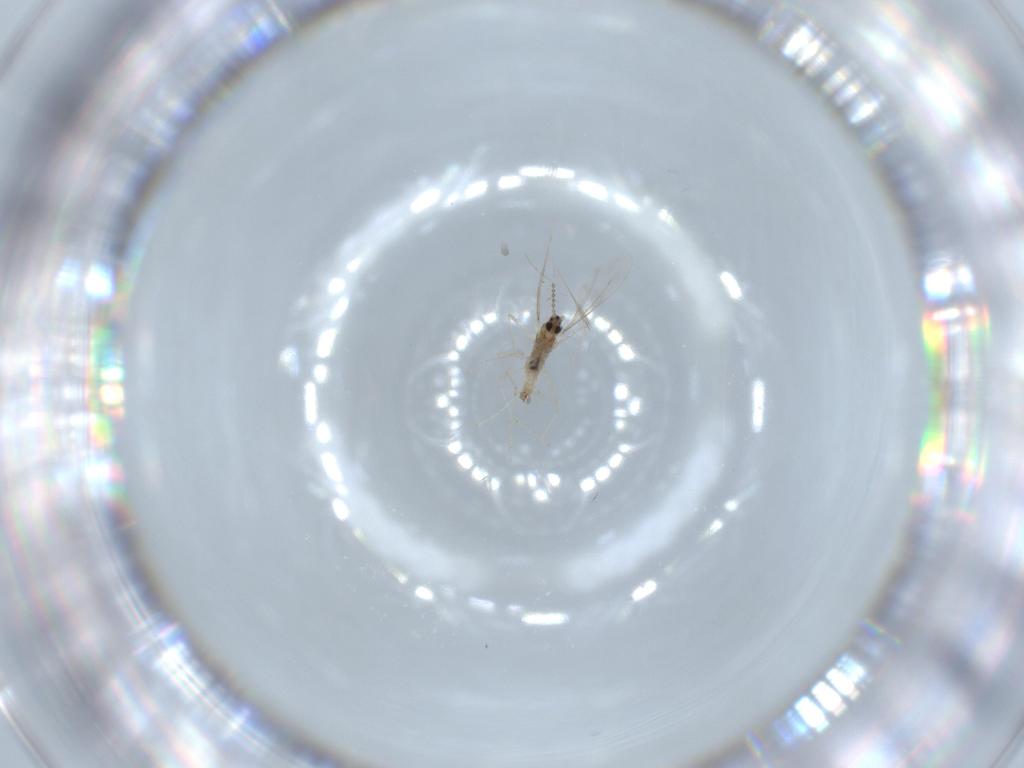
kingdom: Animalia
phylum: Arthropoda
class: Insecta
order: Diptera
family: Cecidomyiidae
